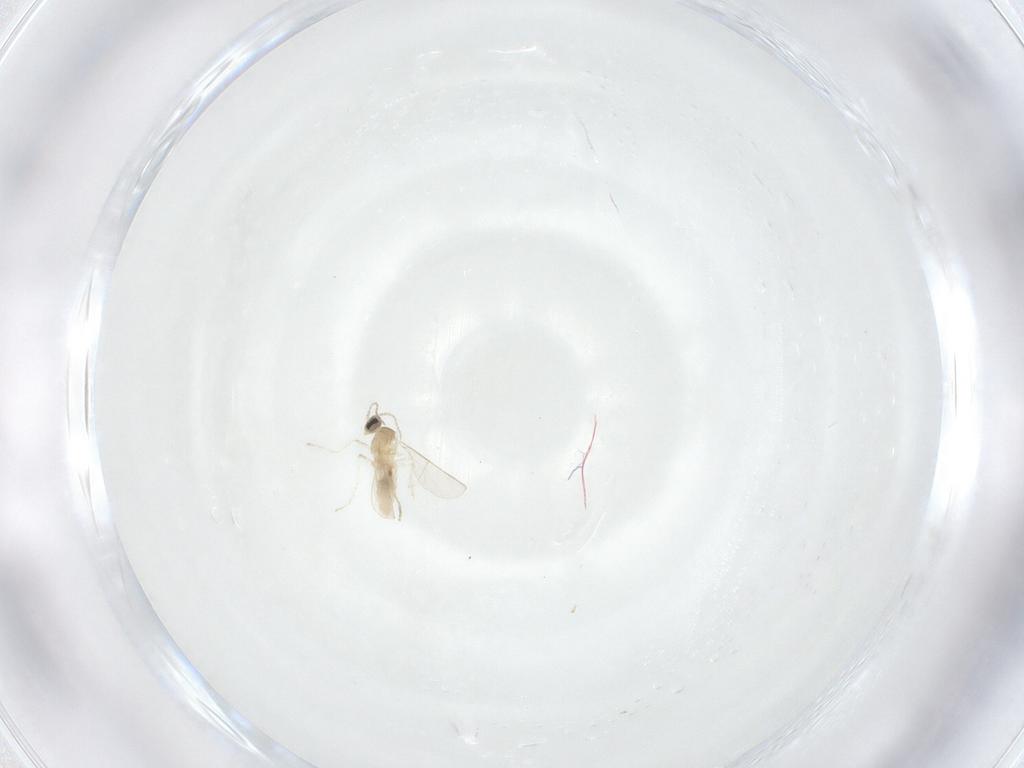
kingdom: Animalia
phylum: Arthropoda
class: Insecta
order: Diptera
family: Cecidomyiidae
